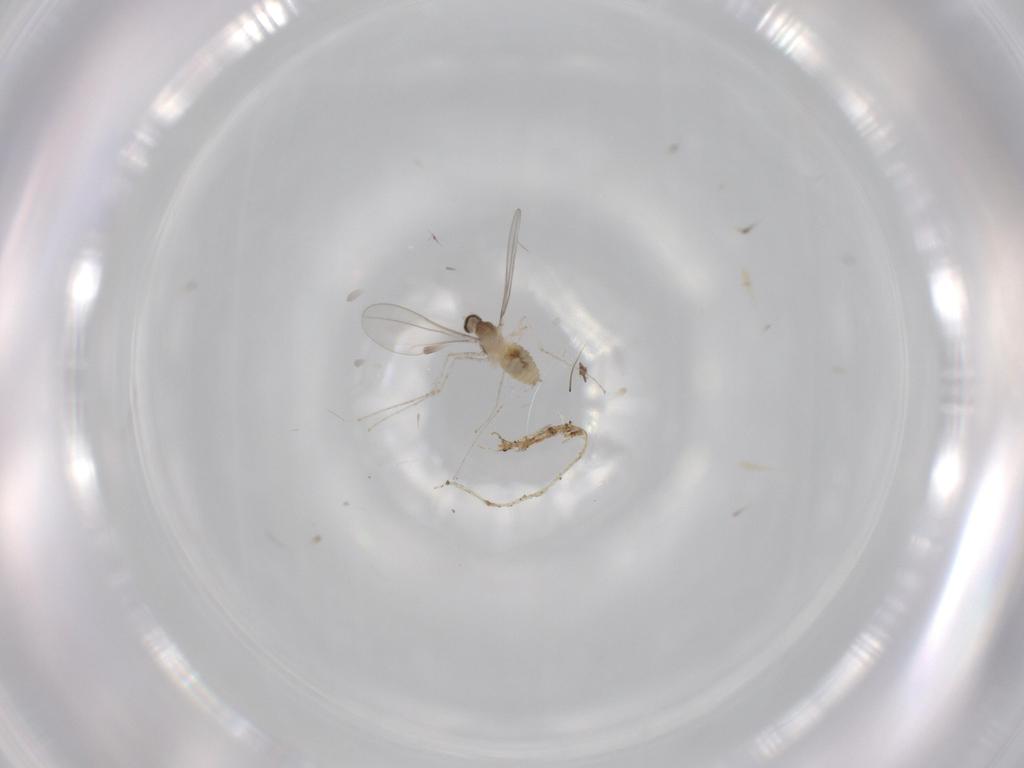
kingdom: Animalia
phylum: Arthropoda
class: Insecta
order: Diptera
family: Cecidomyiidae
